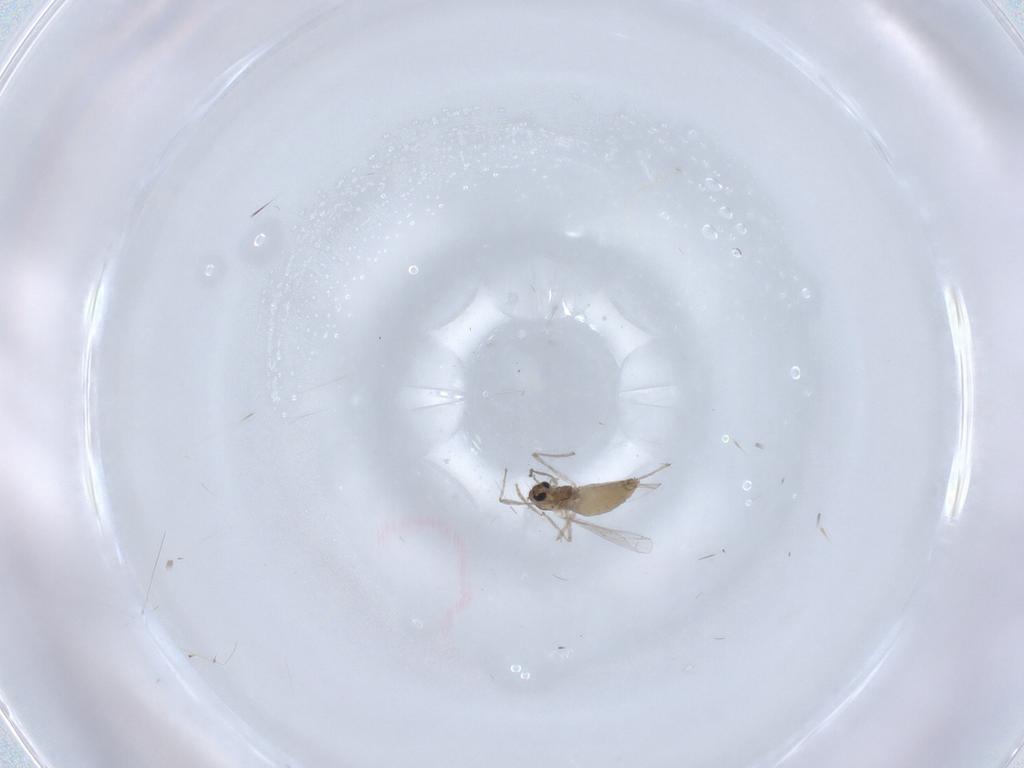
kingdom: Animalia
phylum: Arthropoda
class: Insecta
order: Diptera
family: Chironomidae
